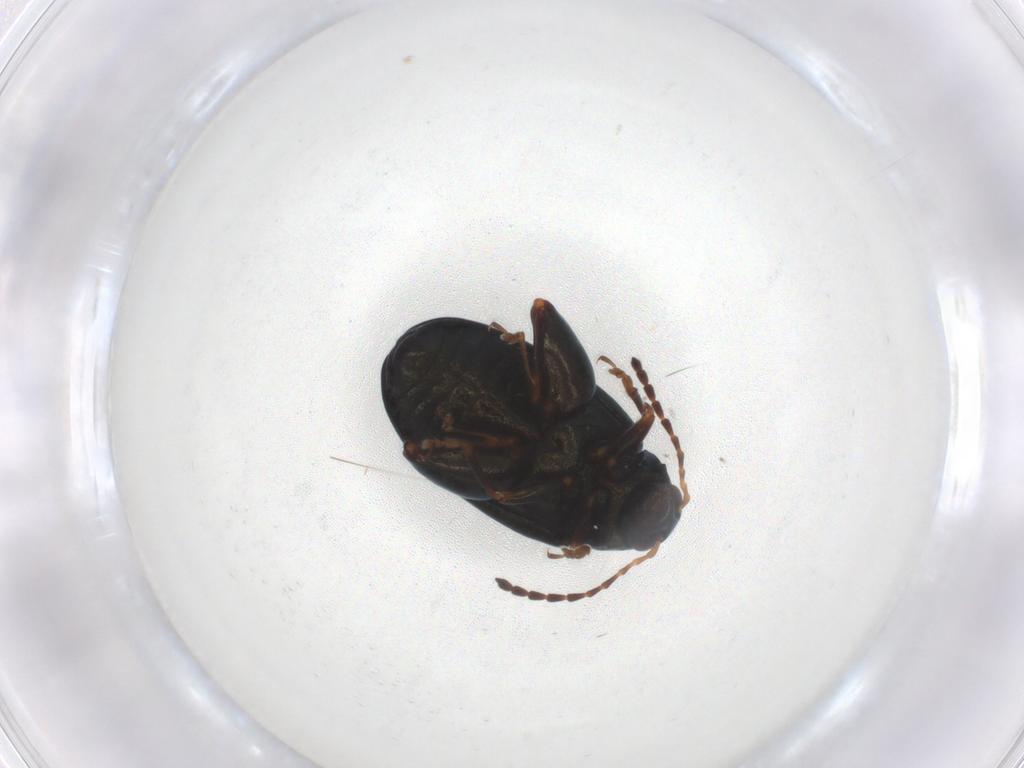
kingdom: Animalia
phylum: Arthropoda
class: Insecta
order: Coleoptera
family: Chrysomelidae
